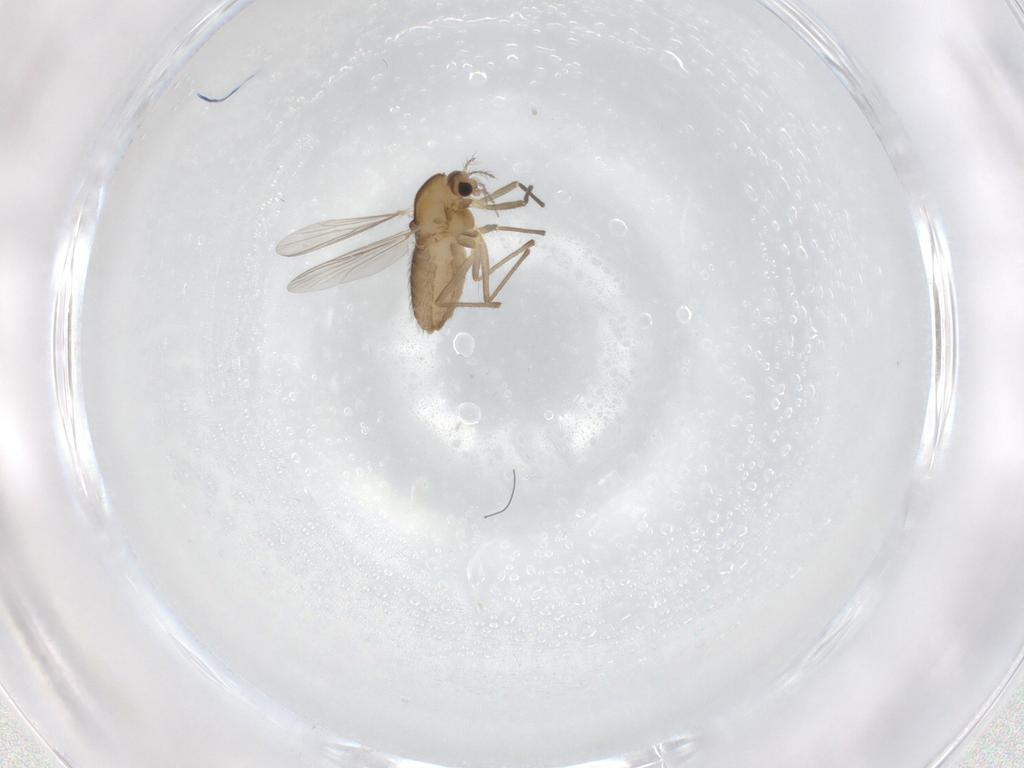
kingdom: Animalia
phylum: Arthropoda
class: Insecta
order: Diptera
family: Chironomidae
